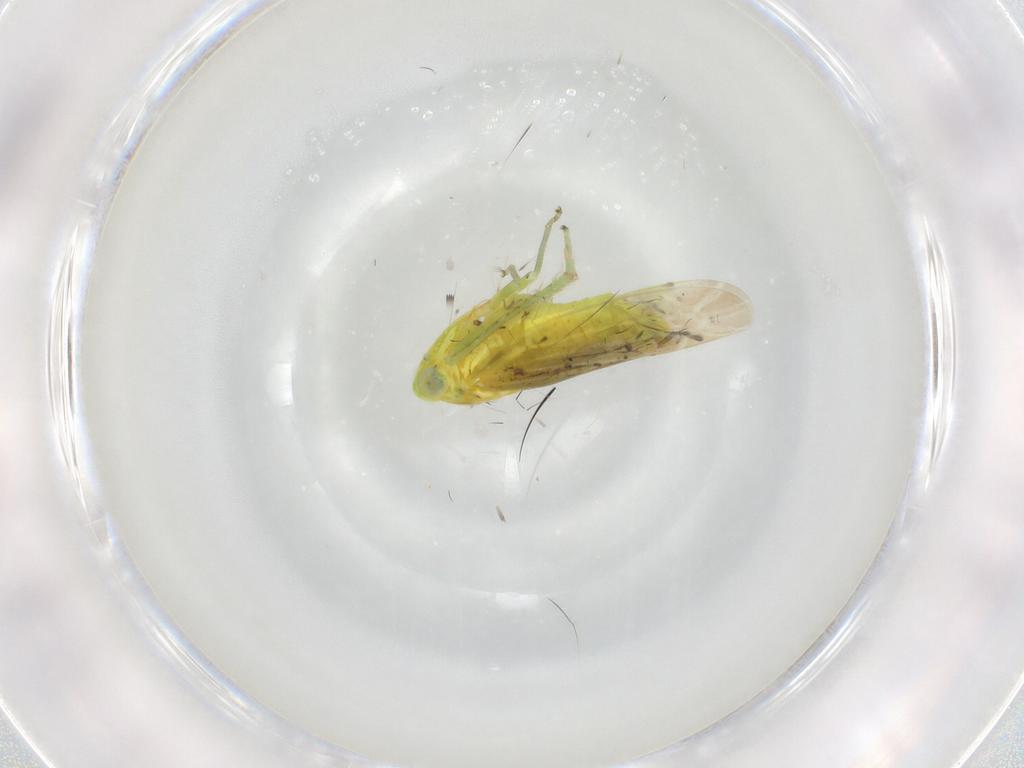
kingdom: Animalia
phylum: Arthropoda
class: Insecta
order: Hemiptera
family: Cicadellidae
